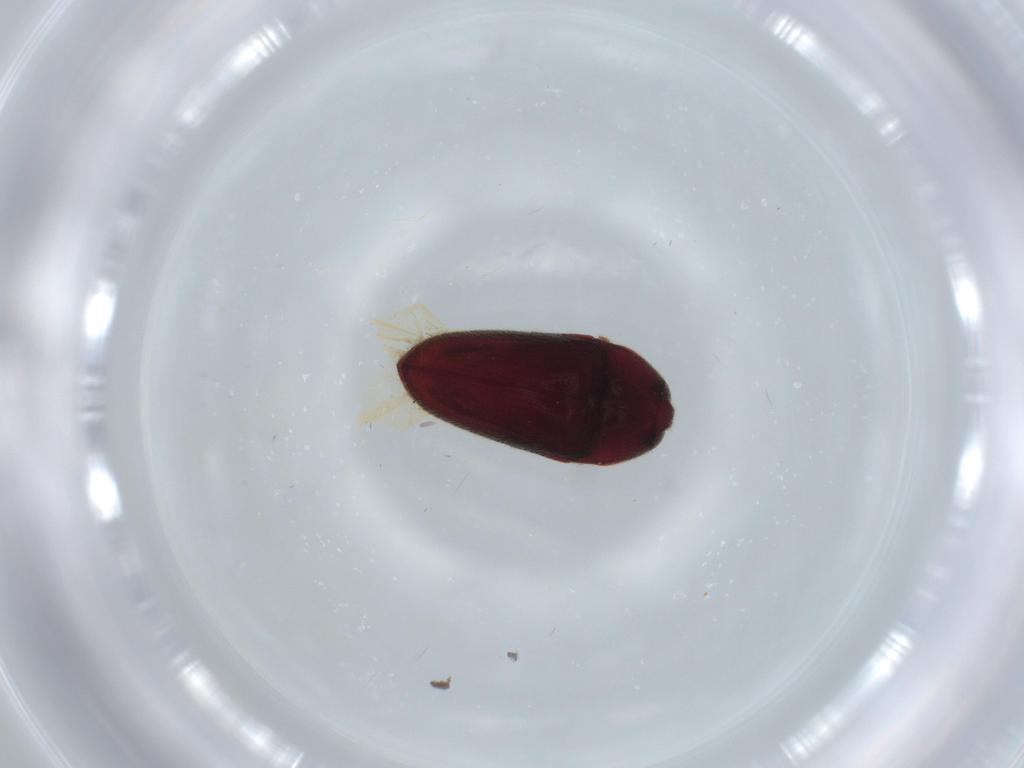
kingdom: Animalia
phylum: Arthropoda
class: Insecta
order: Coleoptera
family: Throscidae
